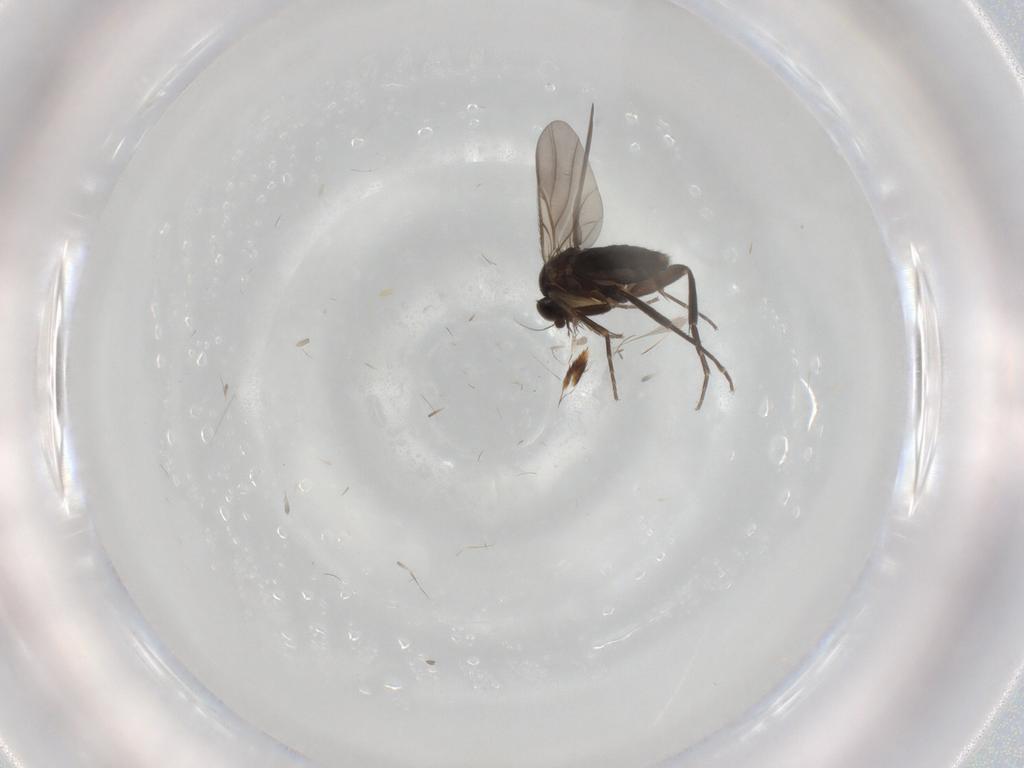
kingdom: Animalia
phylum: Arthropoda
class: Insecta
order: Diptera
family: Phoridae
